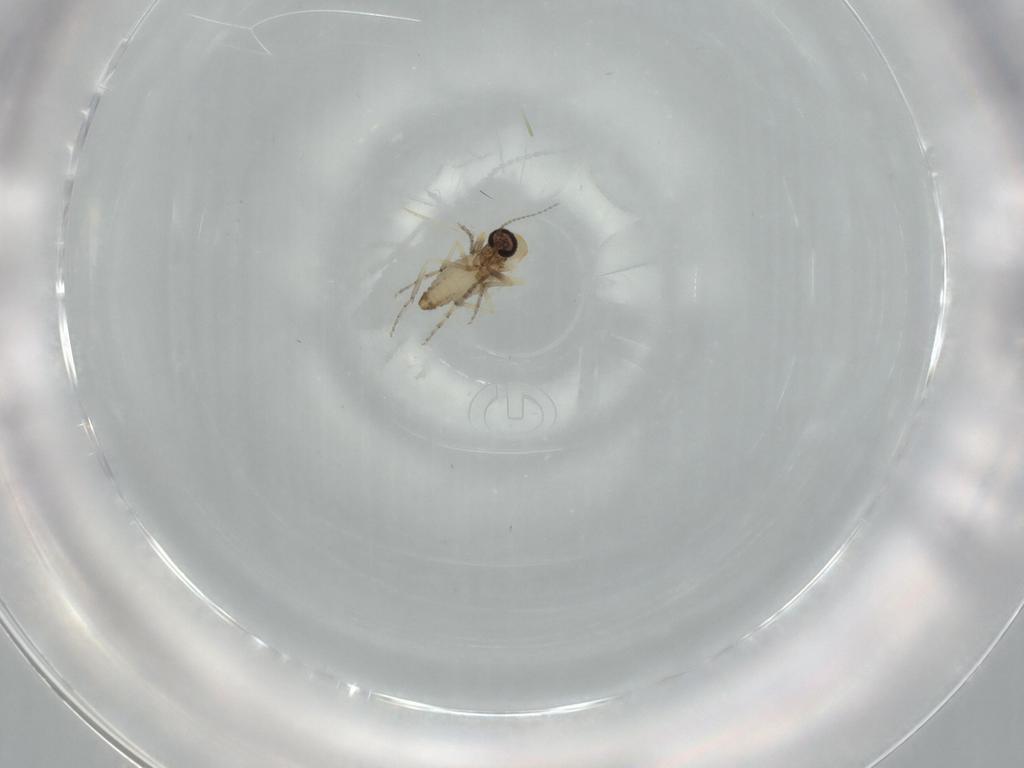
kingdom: Animalia
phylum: Arthropoda
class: Insecta
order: Diptera
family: Ceratopogonidae
